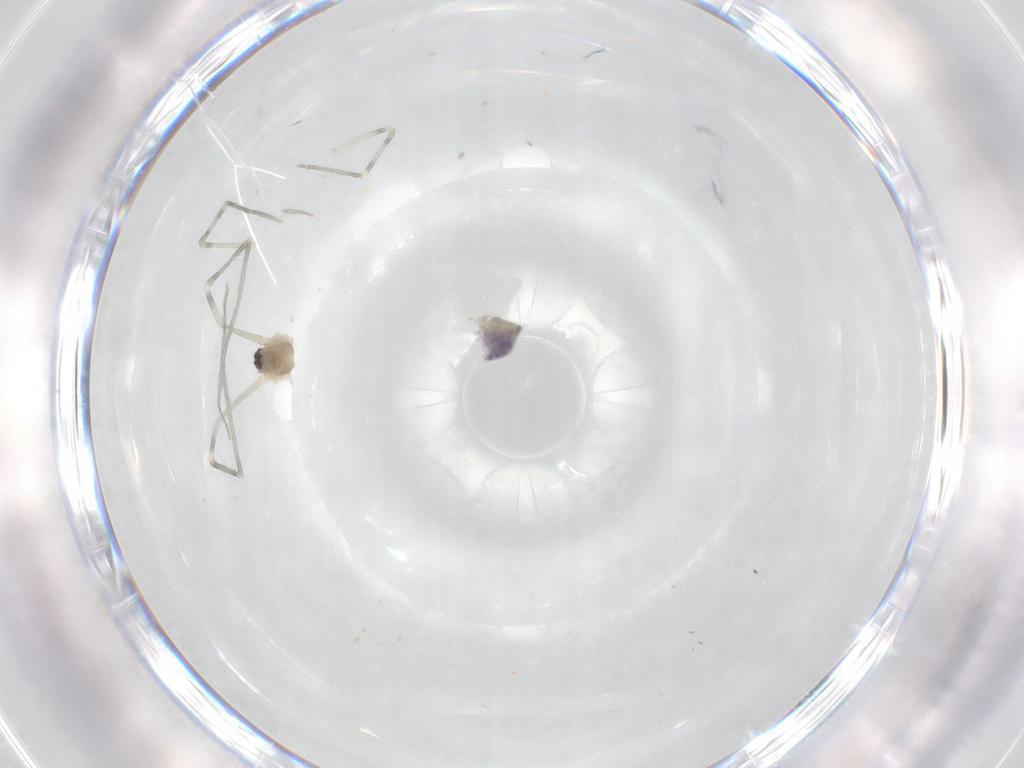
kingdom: Animalia
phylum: Arthropoda
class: Arachnida
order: Araneae
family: Pholcidae
